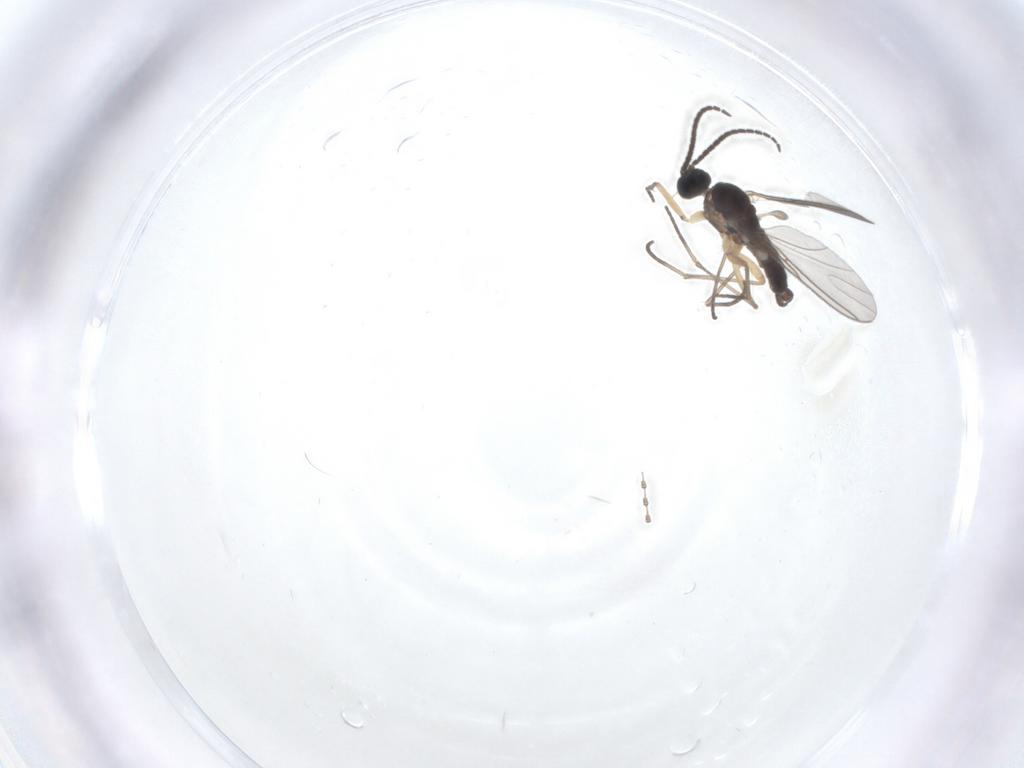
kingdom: Animalia
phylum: Arthropoda
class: Insecta
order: Diptera
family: Sciaridae
